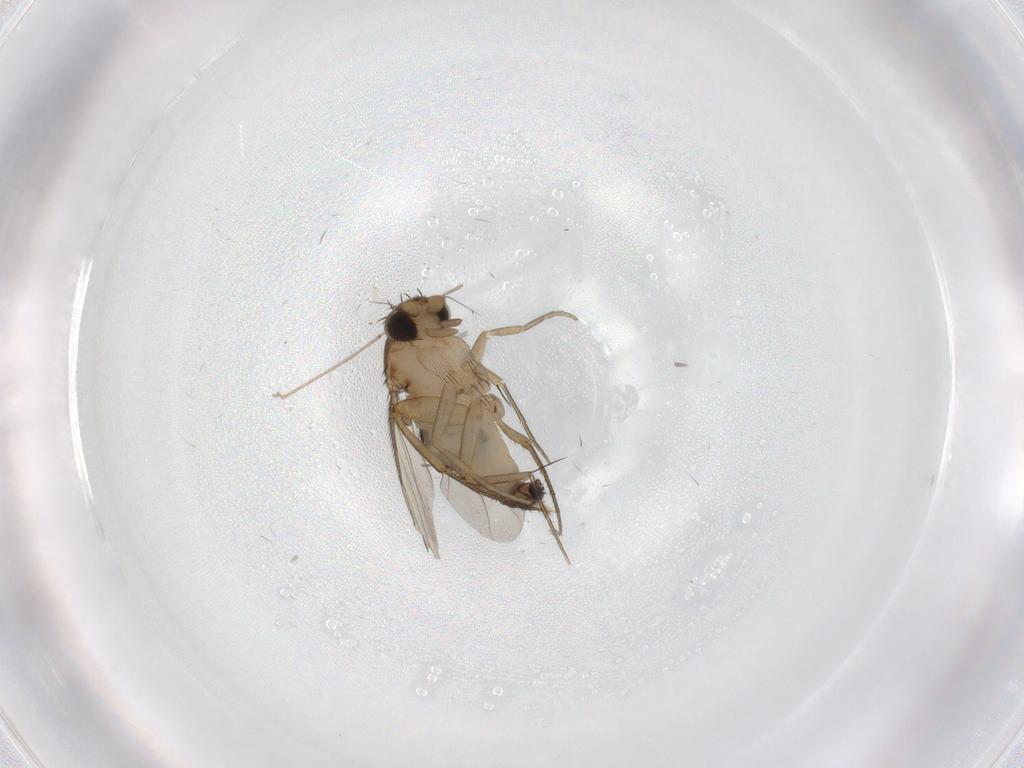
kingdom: Animalia
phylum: Arthropoda
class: Insecta
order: Diptera
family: Phoridae
